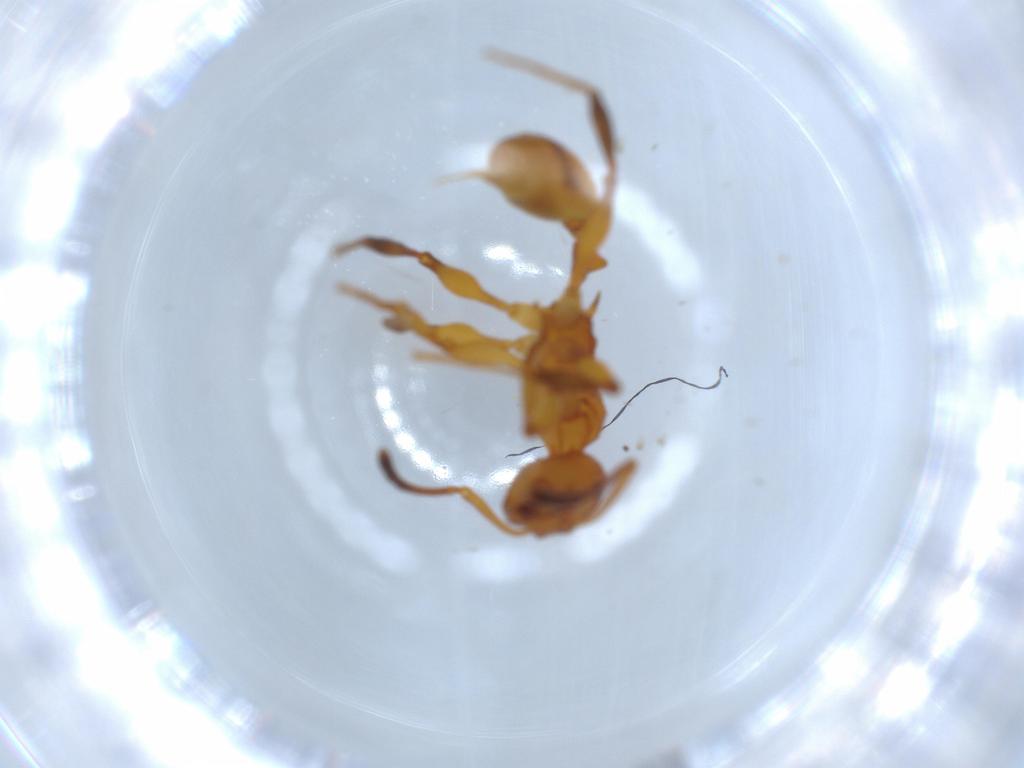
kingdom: Animalia
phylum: Arthropoda
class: Insecta
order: Hymenoptera
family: Formicidae
